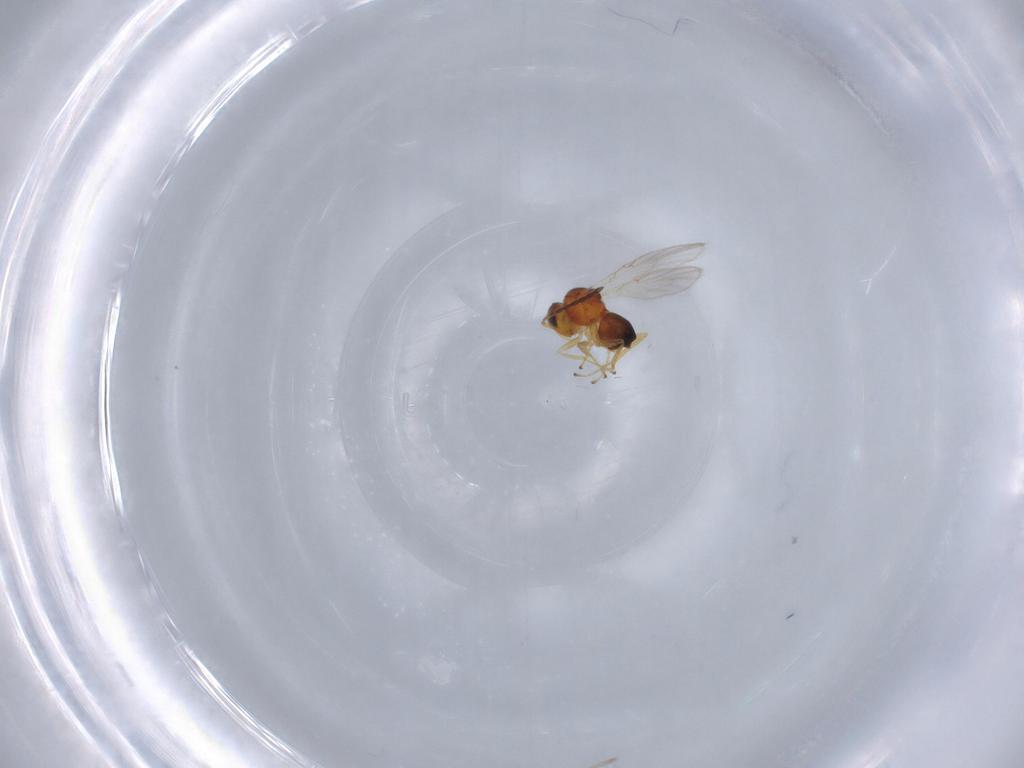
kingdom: Animalia
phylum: Arthropoda
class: Insecta
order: Hymenoptera
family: Figitidae
